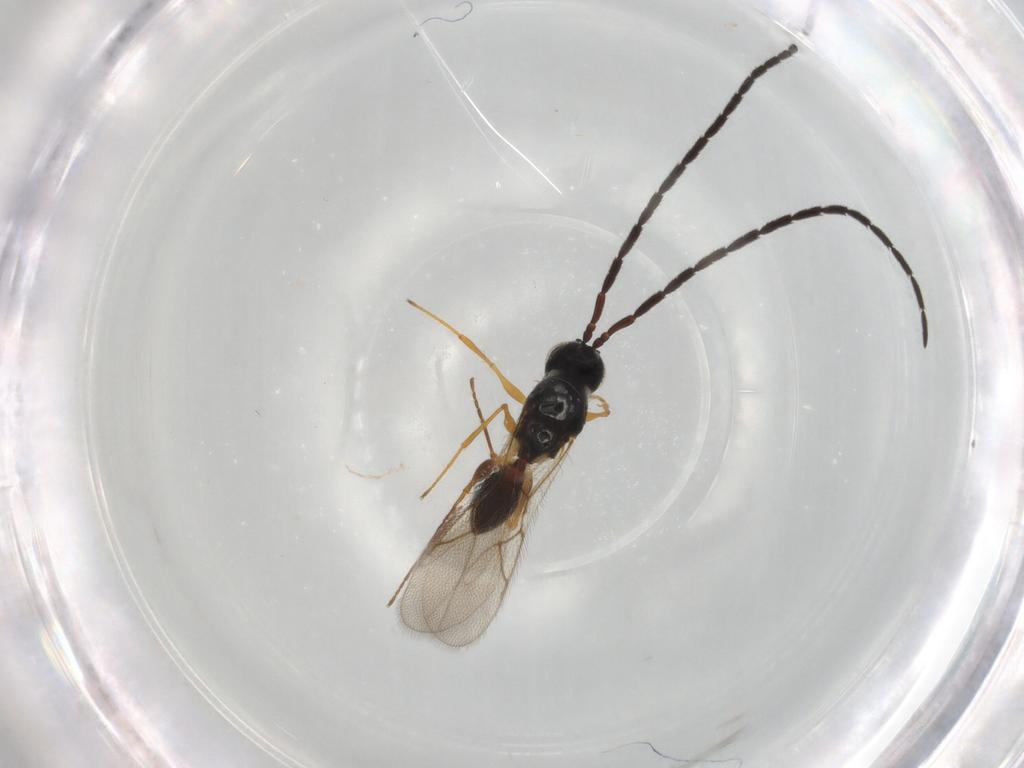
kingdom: Animalia
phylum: Arthropoda
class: Insecta
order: Hymenoptera
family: Figitidae
